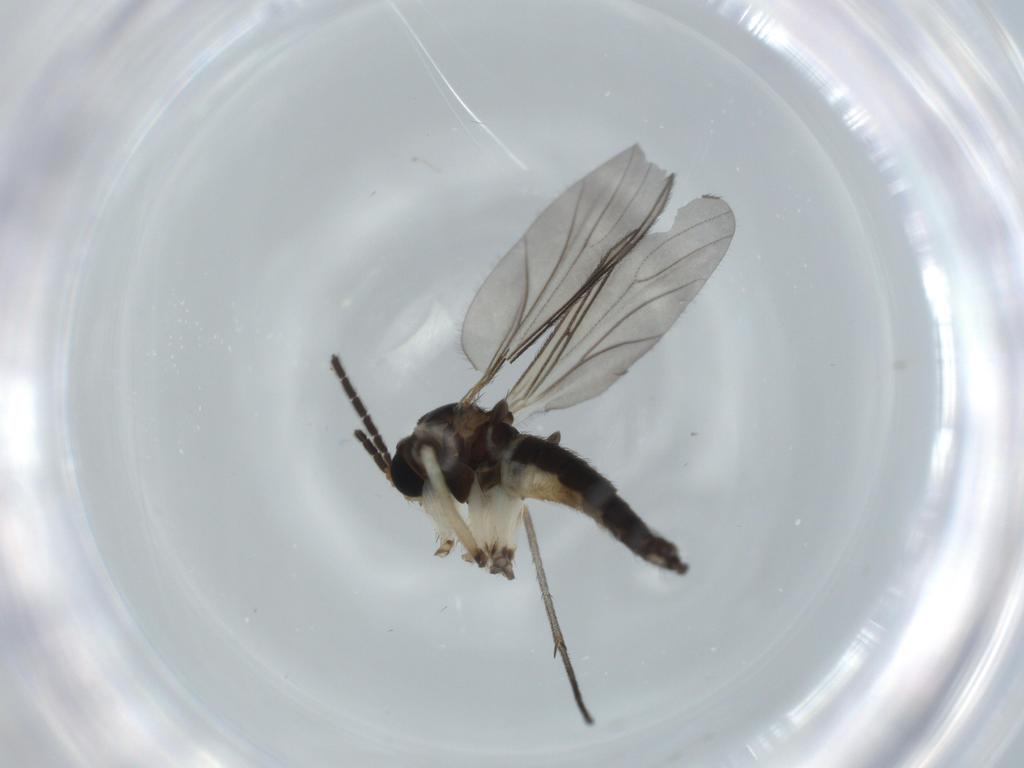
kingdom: Animalia
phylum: Arthropoda
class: Insecta
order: Diptera
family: Sciaridae
